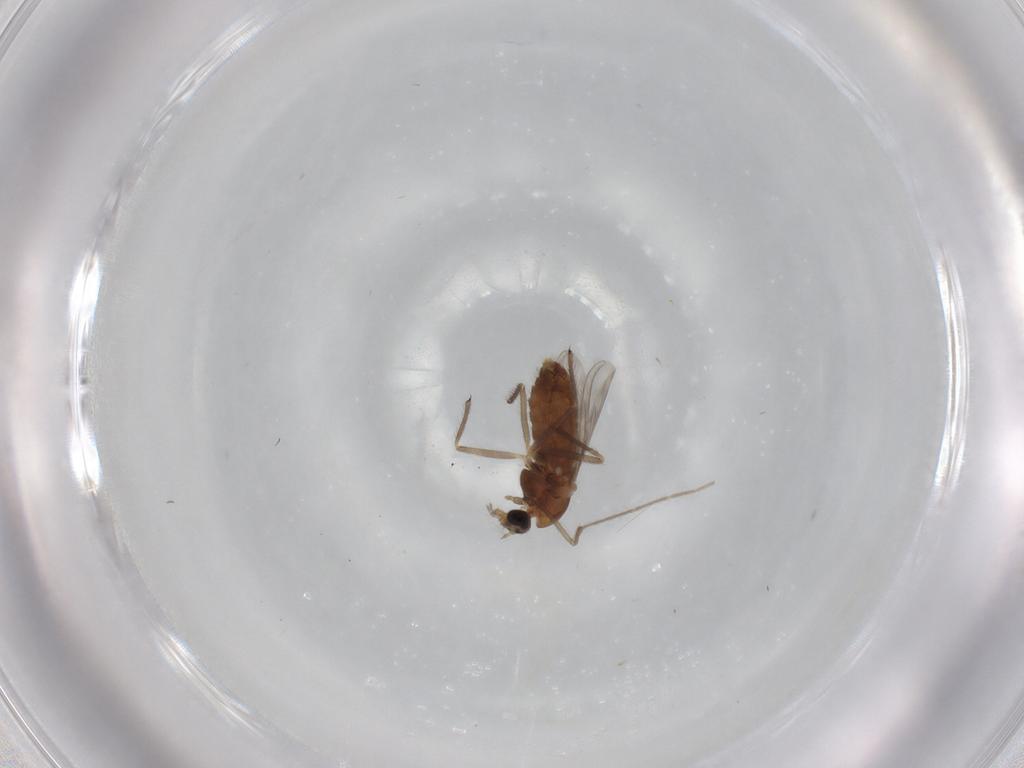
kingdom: Animalia
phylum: Arthropoda
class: Insecta
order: Diptera
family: Chironomidae
